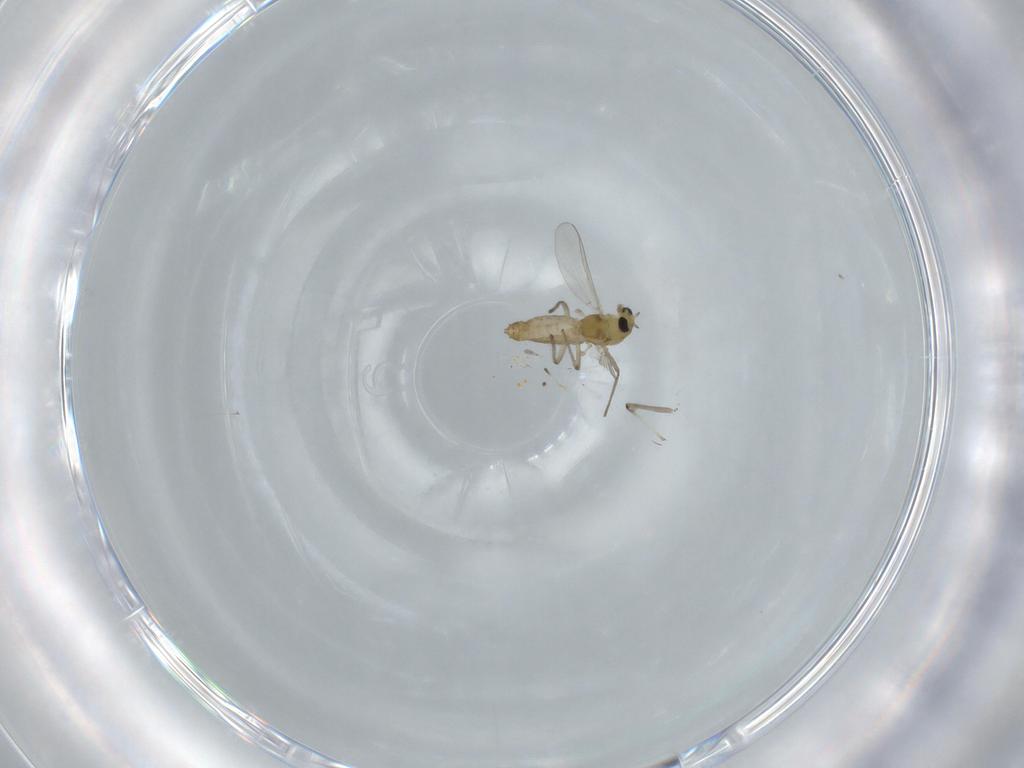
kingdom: Animalia
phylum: Arthropoda
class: Insecta
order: Diptera
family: Chironomidae
